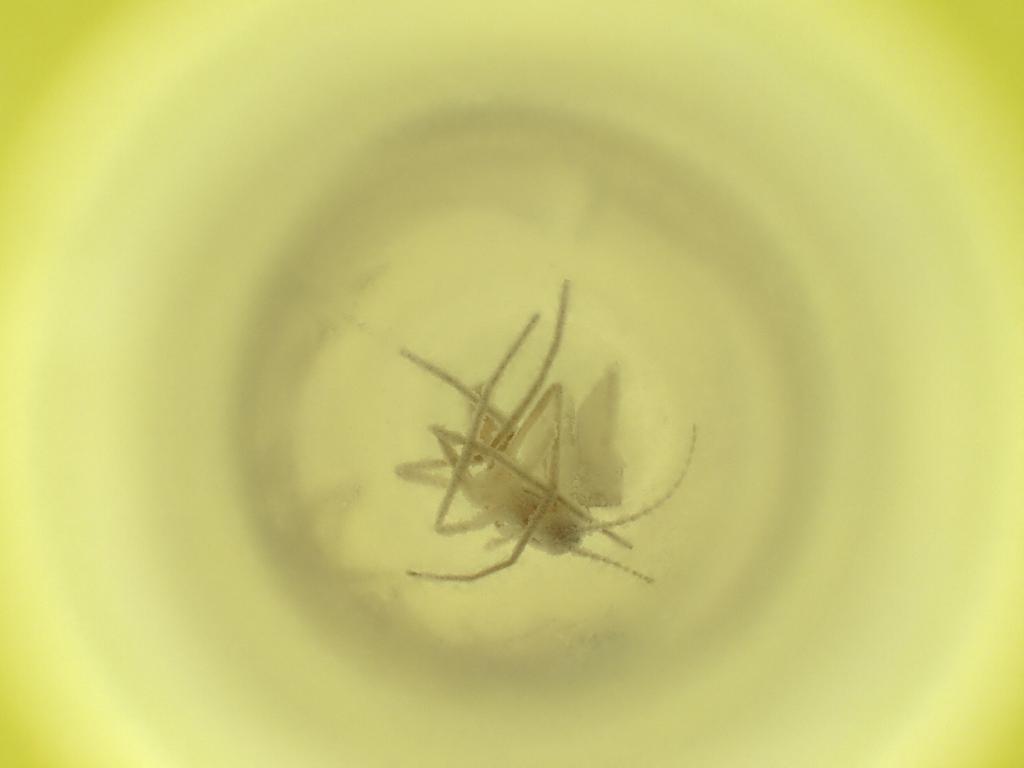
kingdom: Animalia
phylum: Arthropoda
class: Insecta
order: Diptera
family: Cecidomyiidae
